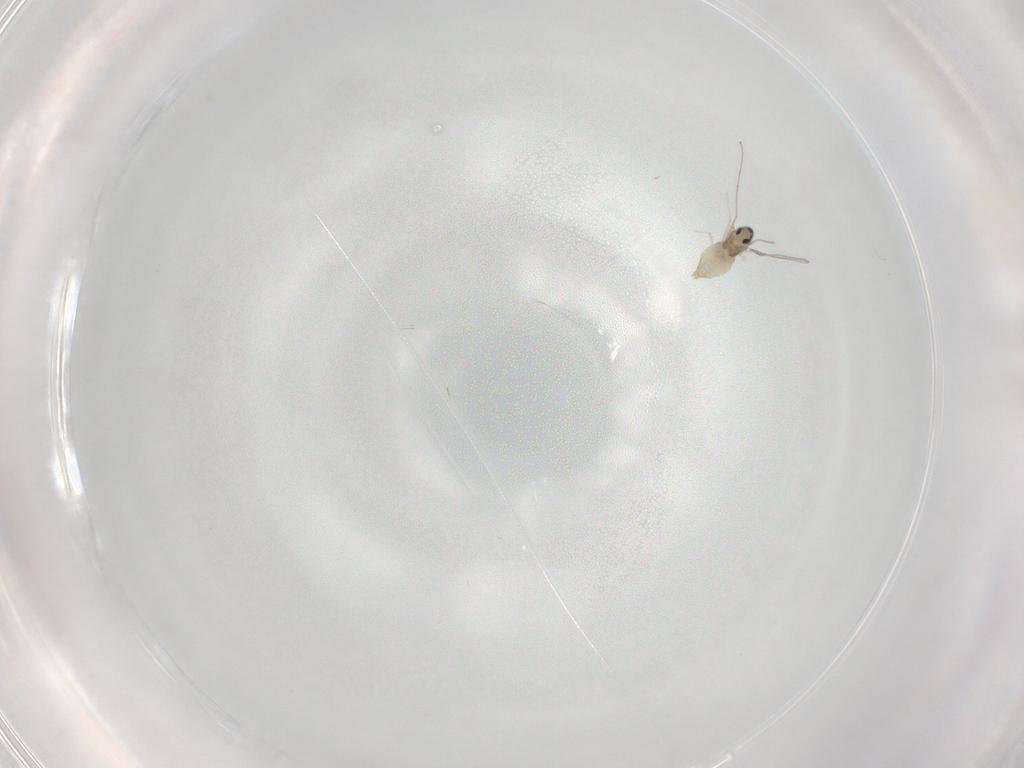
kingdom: Animalia
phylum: Arthropoda
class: Insecta
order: Diptera
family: Cecidomyiidae
